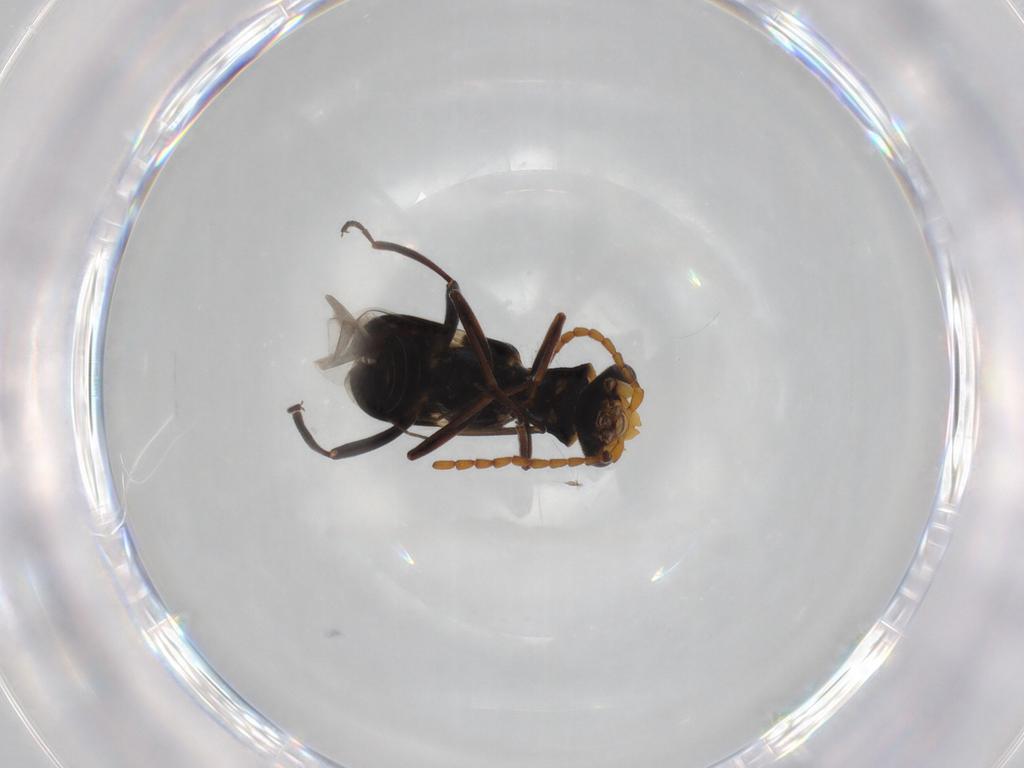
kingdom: Animalia
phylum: Arthropoda
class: Insecta
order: Coleoptera
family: Melyridae
